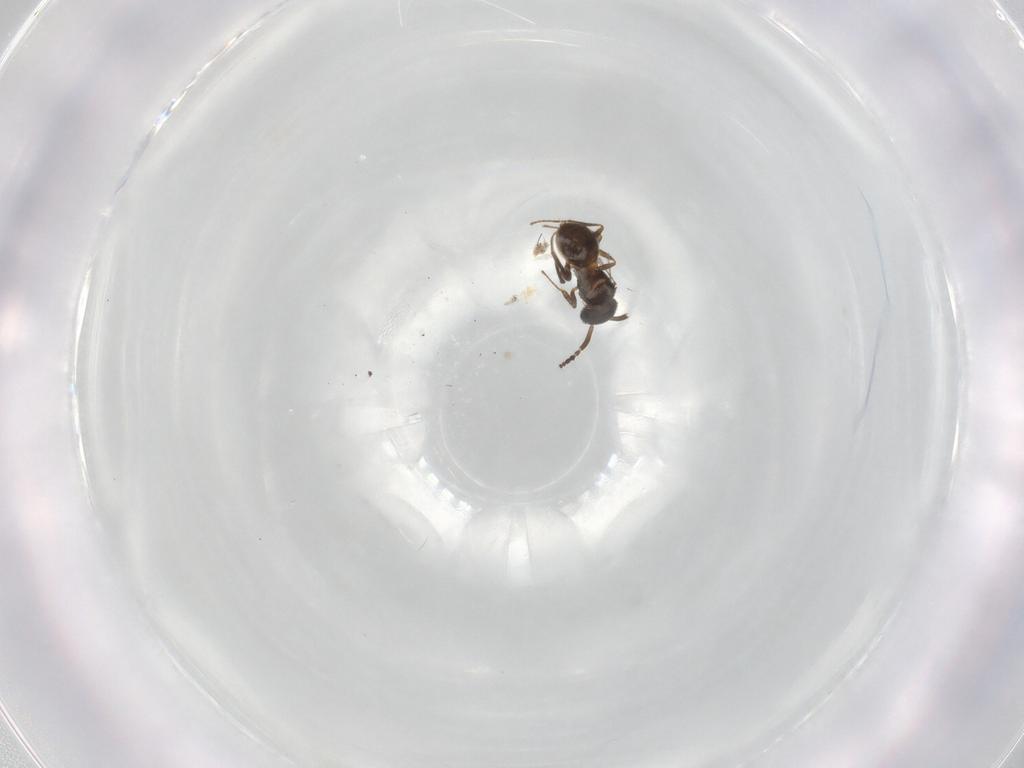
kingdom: Animalia
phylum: Arthropoda
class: Insecta
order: Hymenoptera
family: Scelionidae
